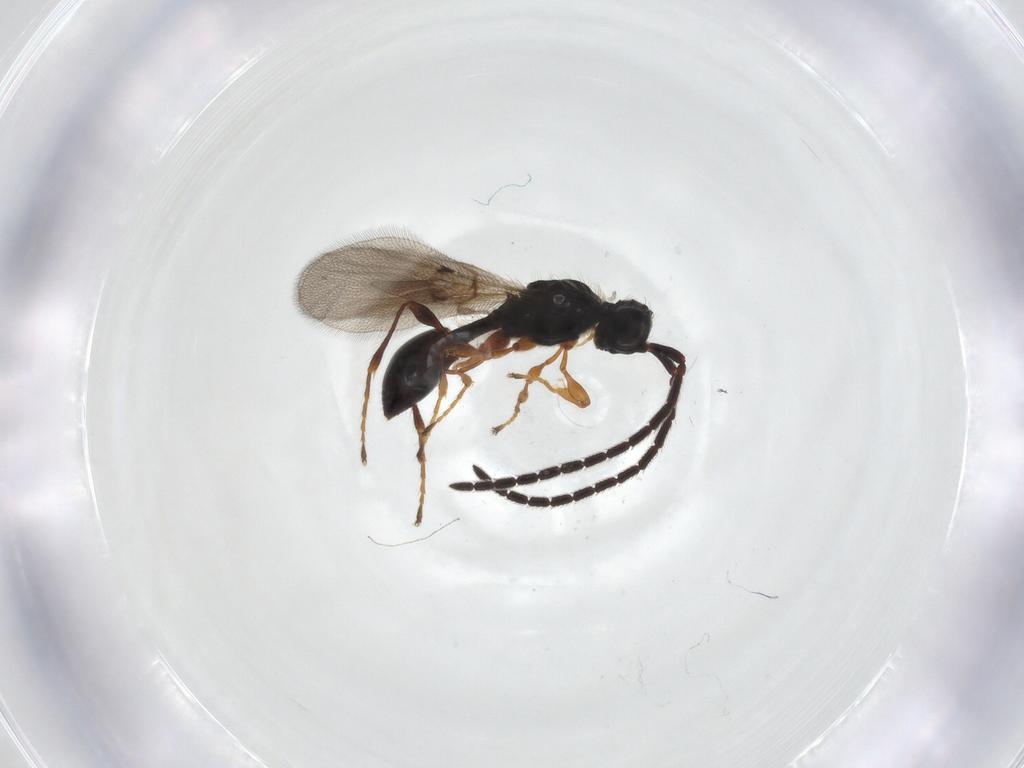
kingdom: Animalia
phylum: Arthropoda
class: Insecta
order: Hymenoptera
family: Diapriidae
